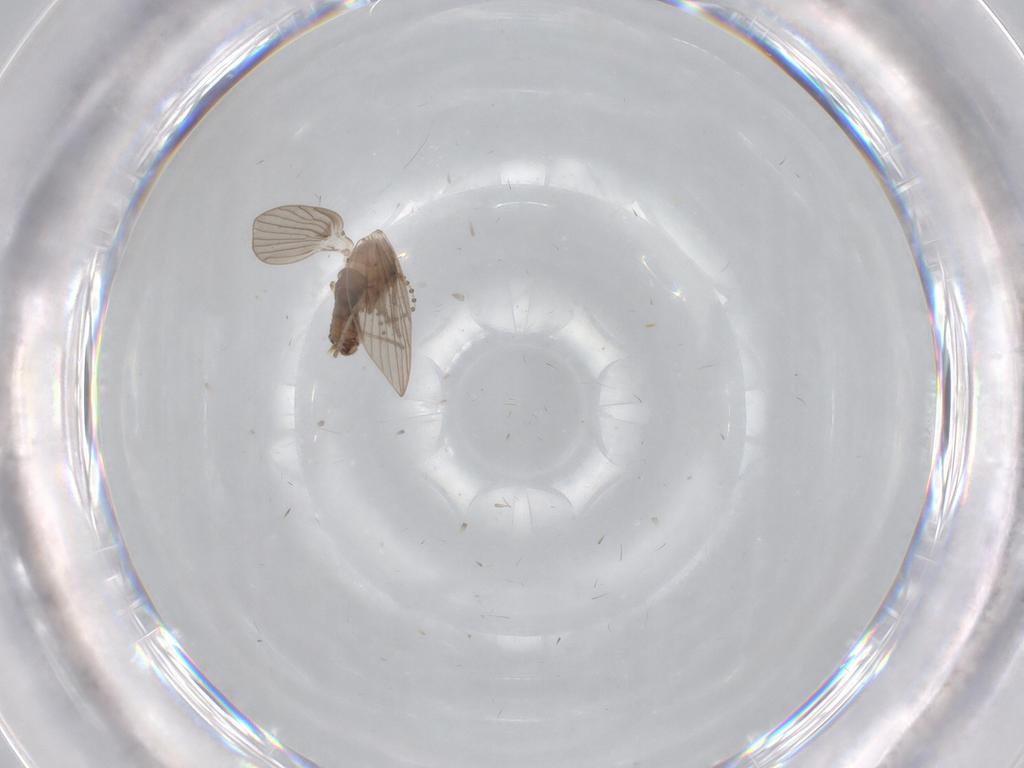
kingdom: Animalia
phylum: Arthropoda
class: Insecta
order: Diptera
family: Psychodidae
